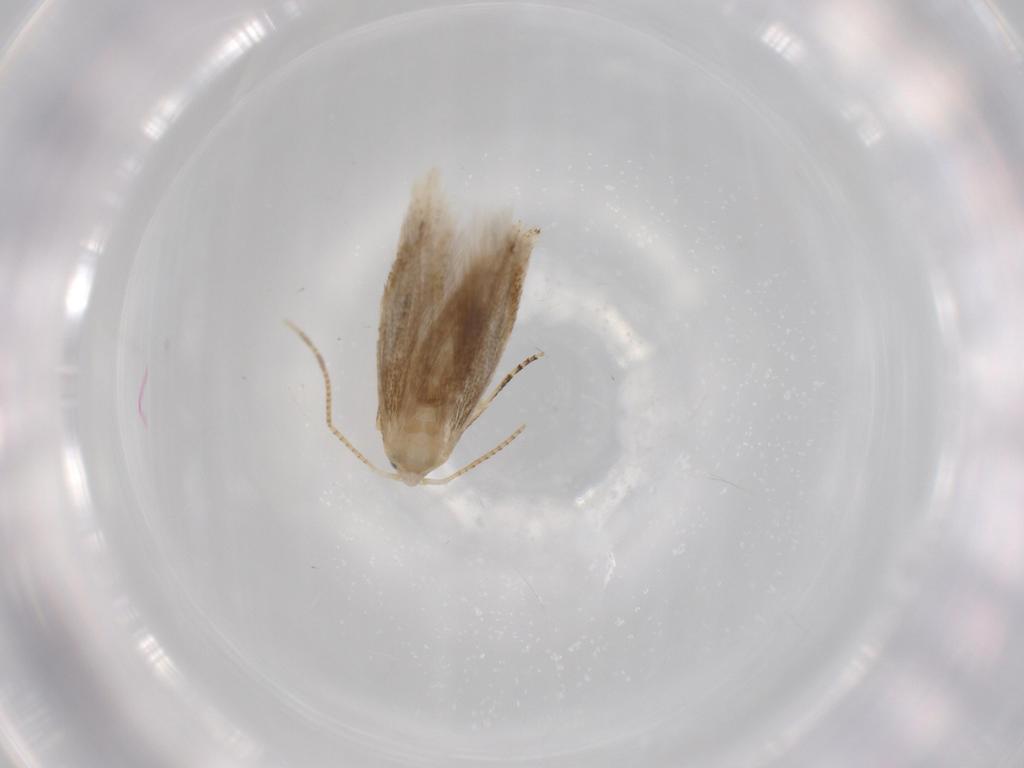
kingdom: Animalia
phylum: Arthropoda
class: Insecta
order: Lepidoptera
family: Bucculatricidae
